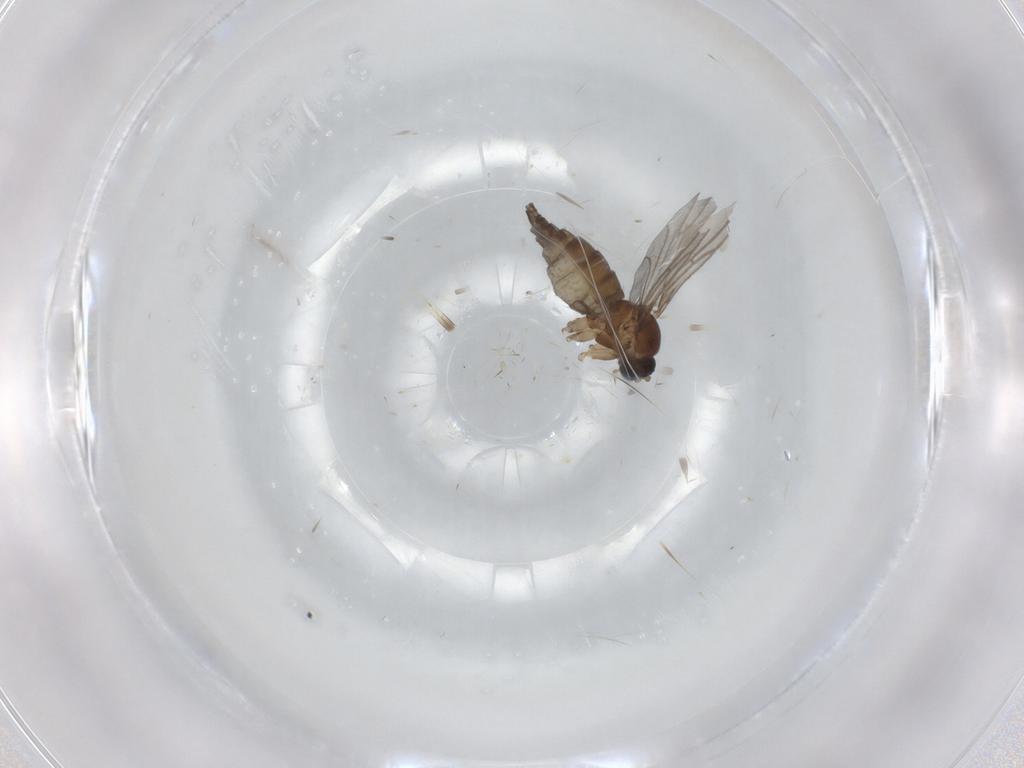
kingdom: Animalia
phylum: Arthropoda
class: Insecta
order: Diptera
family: Sciaridae
